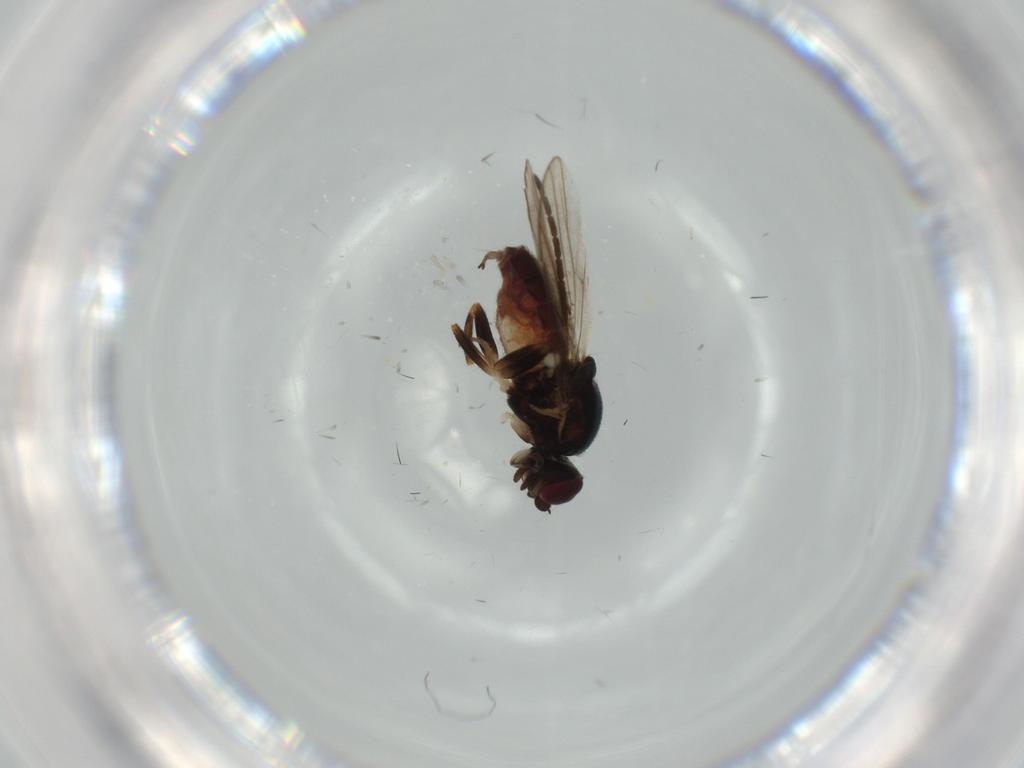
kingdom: Animalia
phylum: Arthropoda
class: Insecta
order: Diptera
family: Chloropidae
